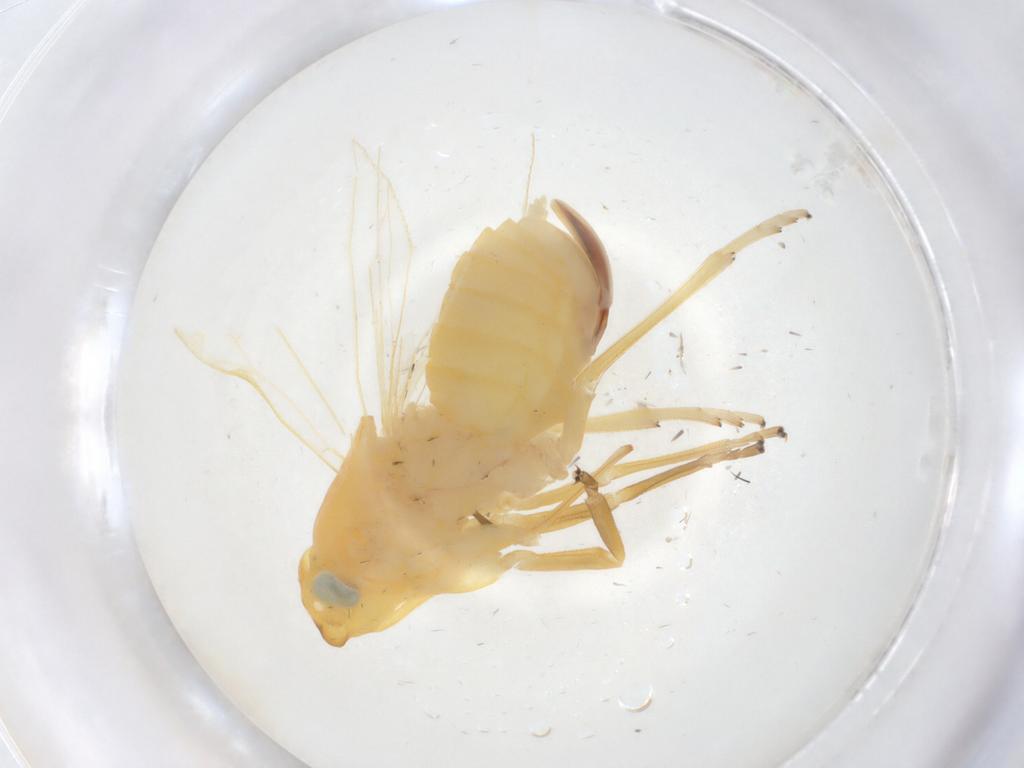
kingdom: Animalia
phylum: Arthropoda
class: Insecta
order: Hemiptera
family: Cixiidae
